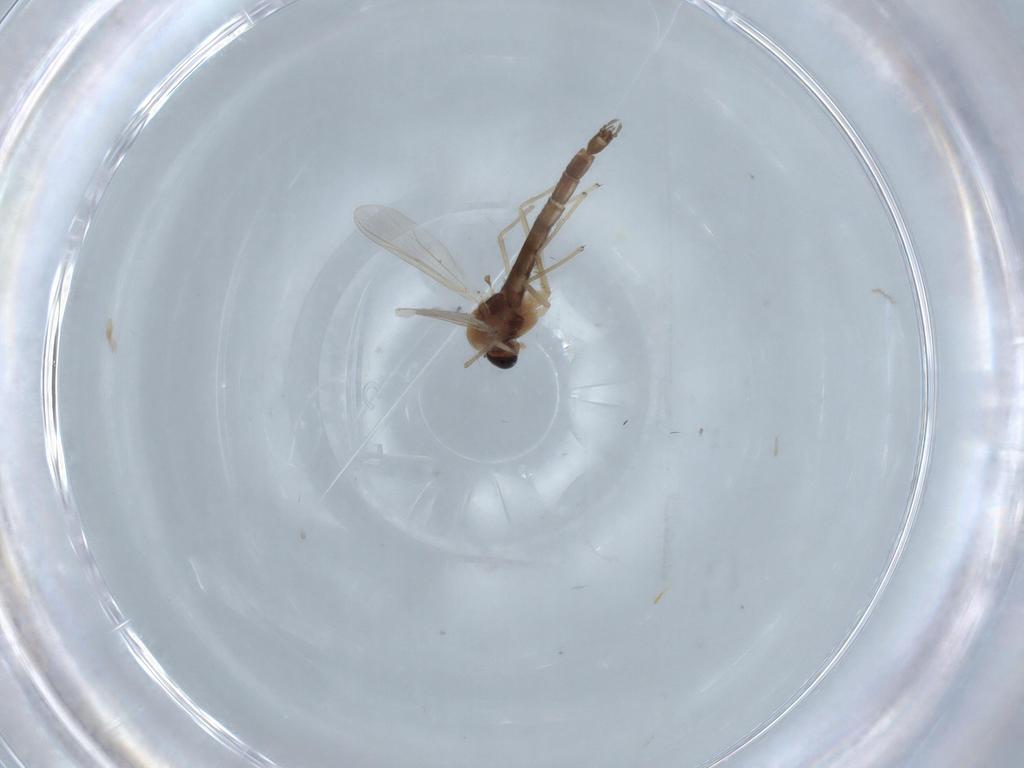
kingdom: Animalia
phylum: Arthropoda
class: Insecta
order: Diptera
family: Chironomidae
